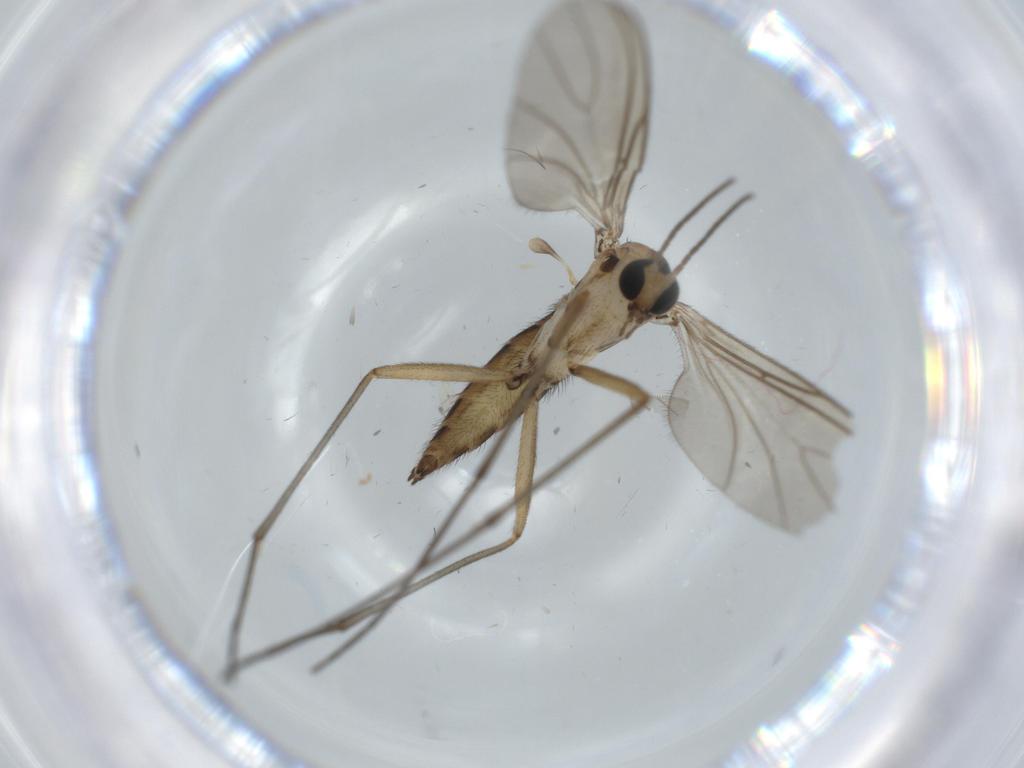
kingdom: Animalia
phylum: Arthropoda
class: Insecta
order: Diptera
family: Sciaridae
